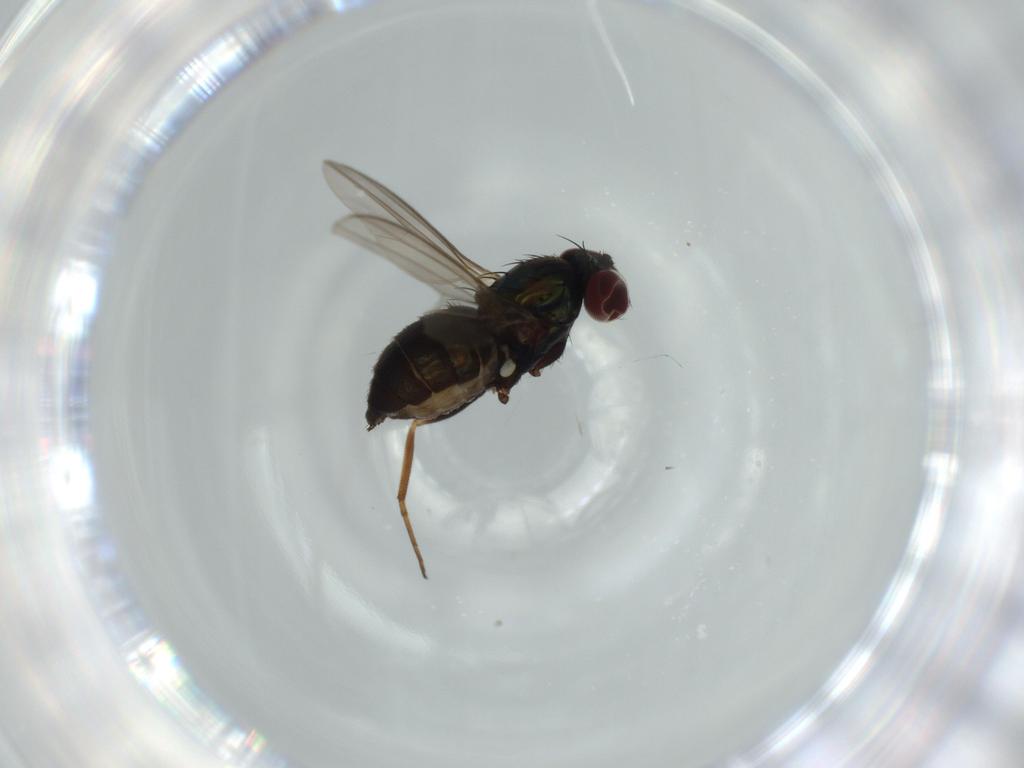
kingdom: Animalia
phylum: Arthropoda
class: Insecta
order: Diptera
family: Dolichopodidae
